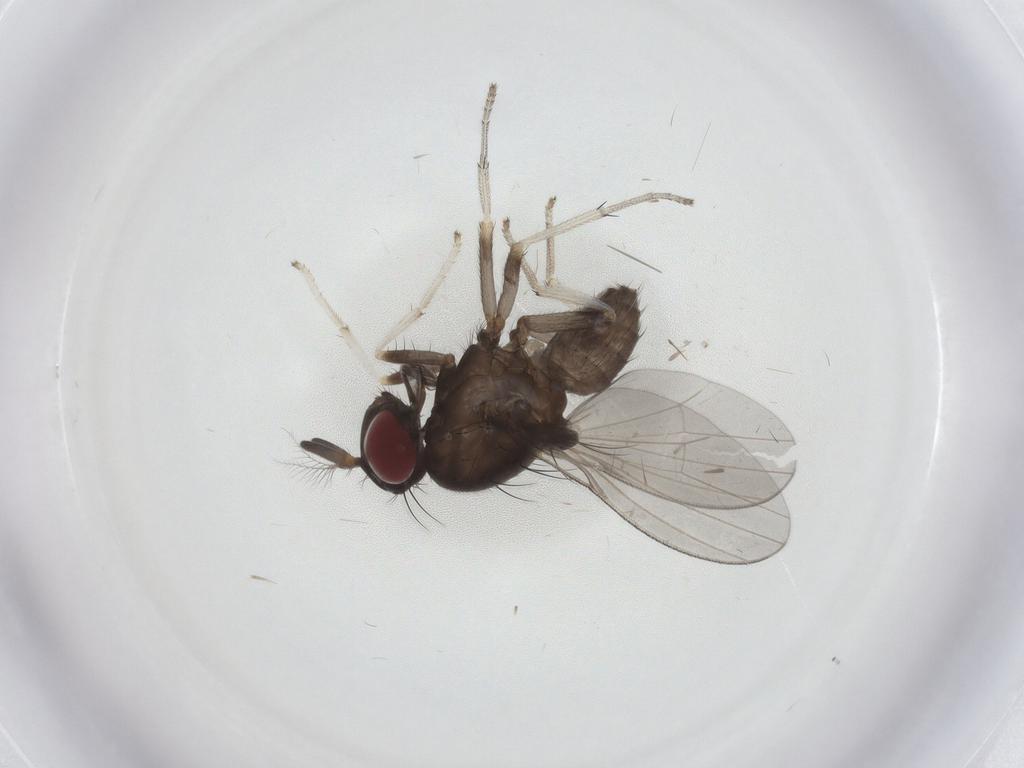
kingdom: Animalia
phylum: Arthropoda
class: Insecta
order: Diptera
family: Lauxaniidae
